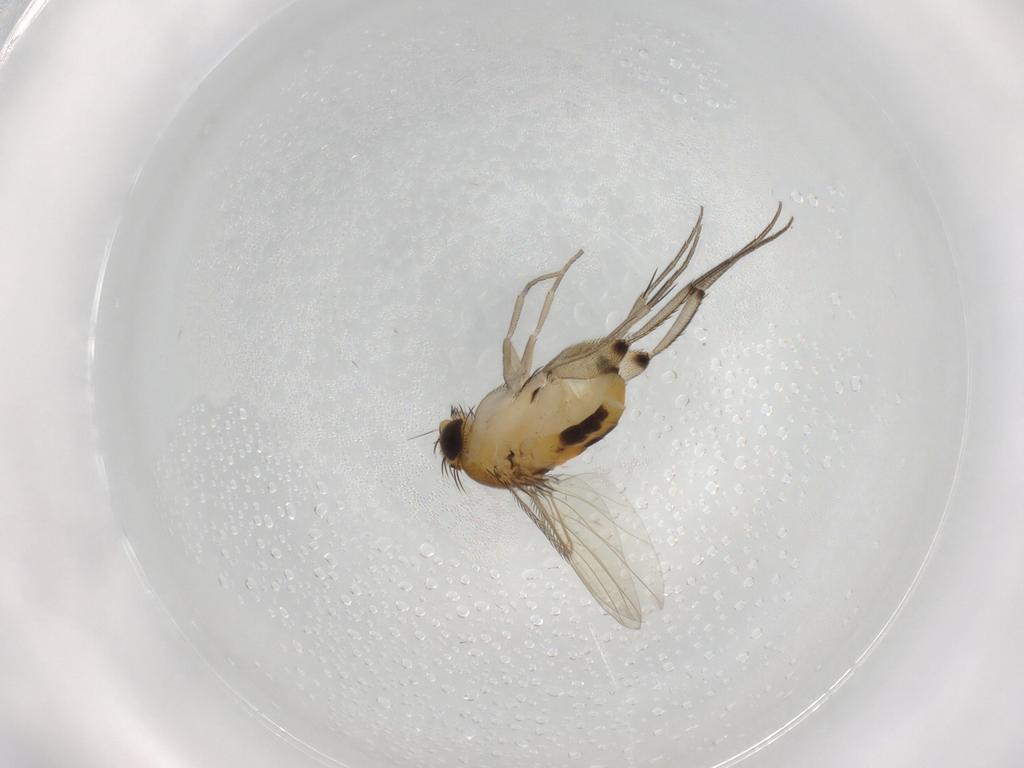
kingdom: Animalia
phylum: Arthropoda
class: Insecta
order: Diptera
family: Phoridae
